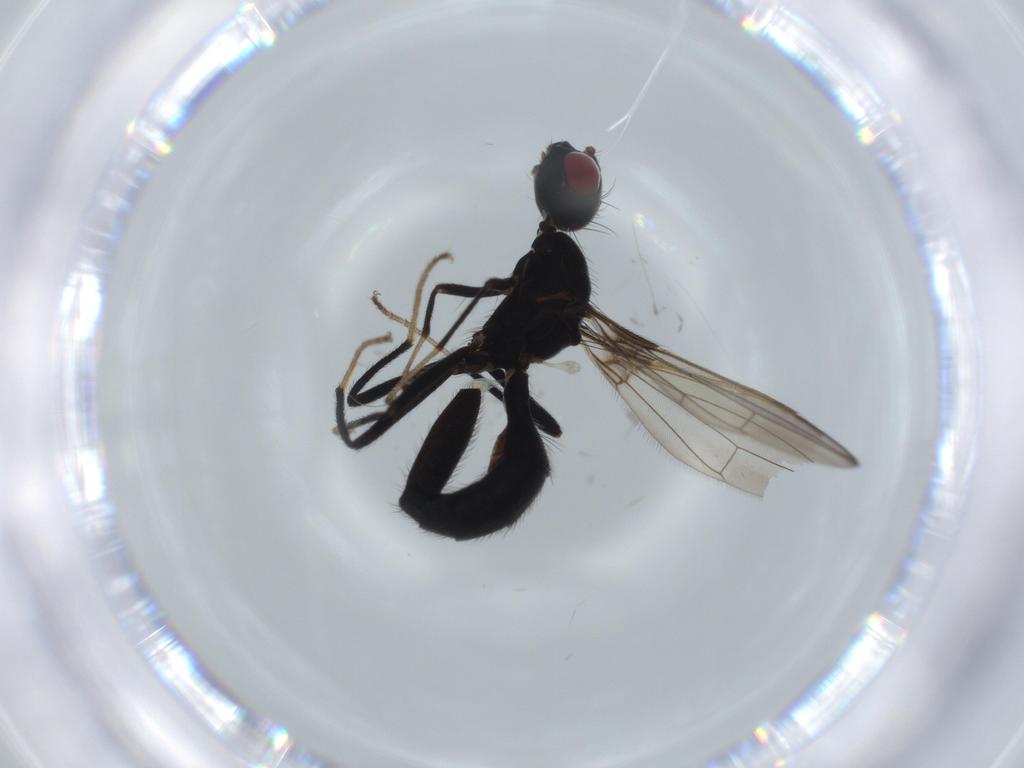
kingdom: Animalia
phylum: Arthropoda
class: Insecta
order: Diptera
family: Richardiidae
